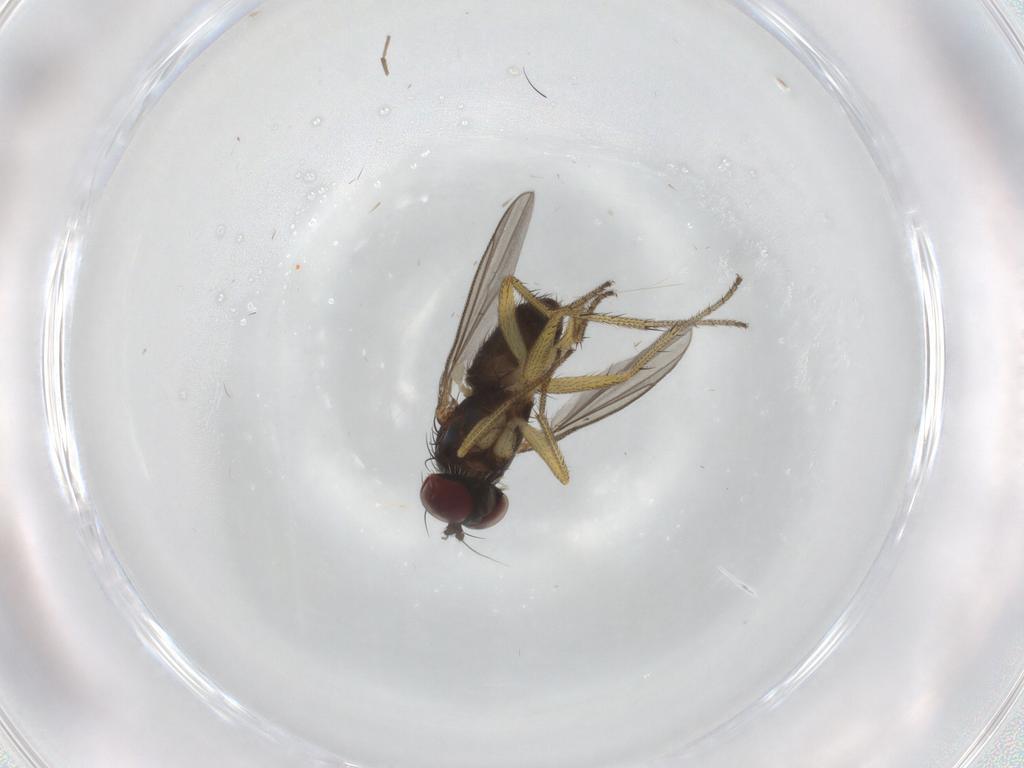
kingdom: Animalia
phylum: Arthropoda
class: Insecta
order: Diptera
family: Dolichopodidae
